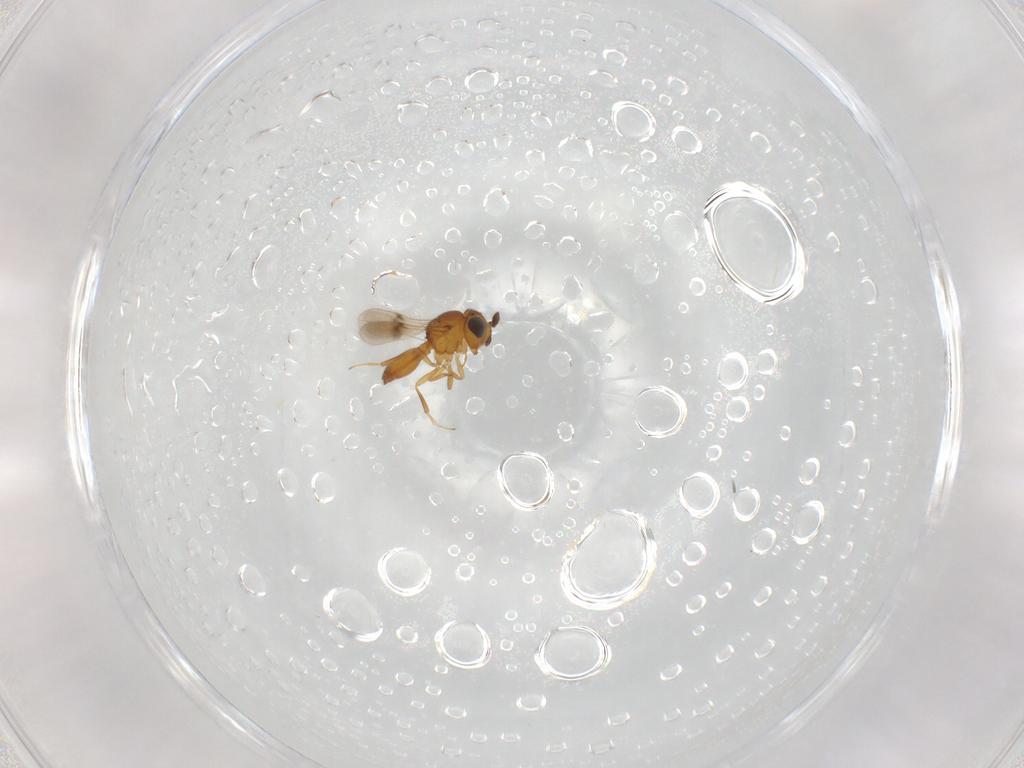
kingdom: Animalia
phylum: Arthropoda
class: Insecta
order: Hymenoptera
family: Scelionidae
